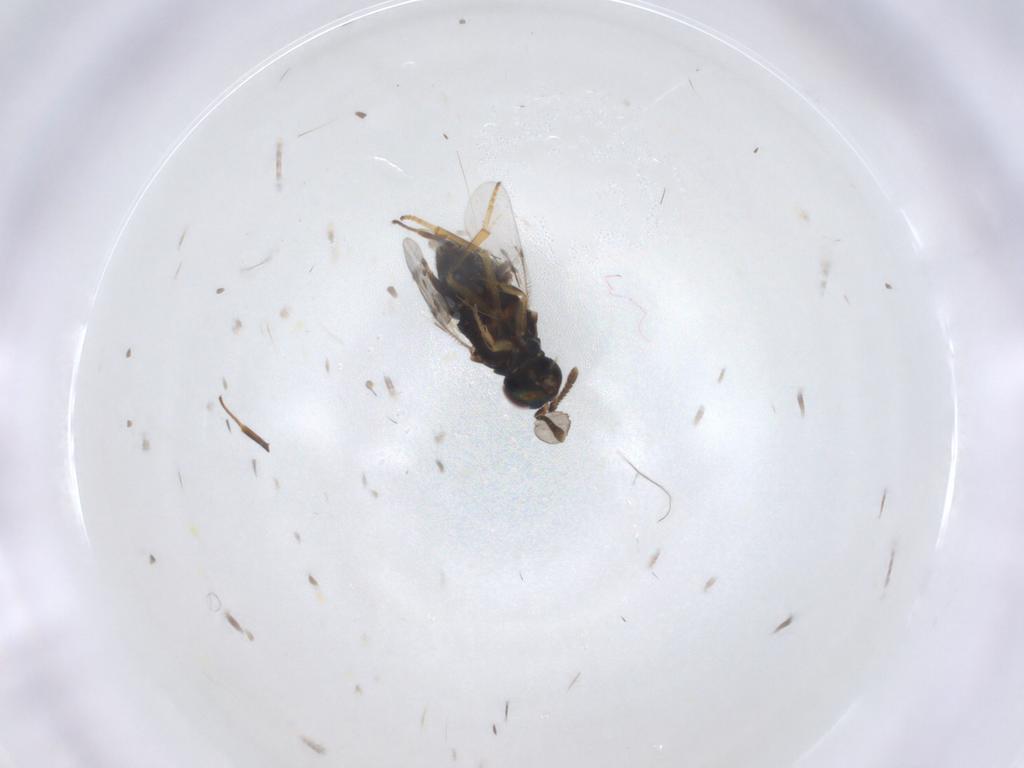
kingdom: Animalia
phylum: Arthropoda
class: Insecta
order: Hymenoptera
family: Encyrtidae
